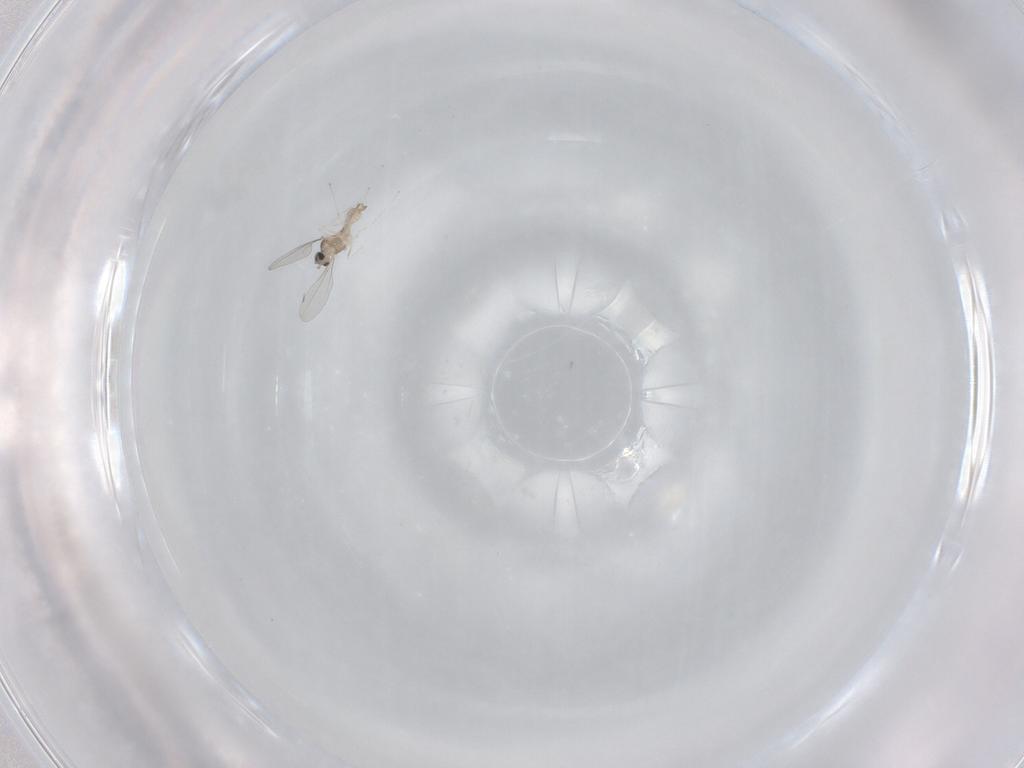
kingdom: Animalia
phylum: Arthropoda
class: Insecta
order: Diptera
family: Cecidomyiidae
